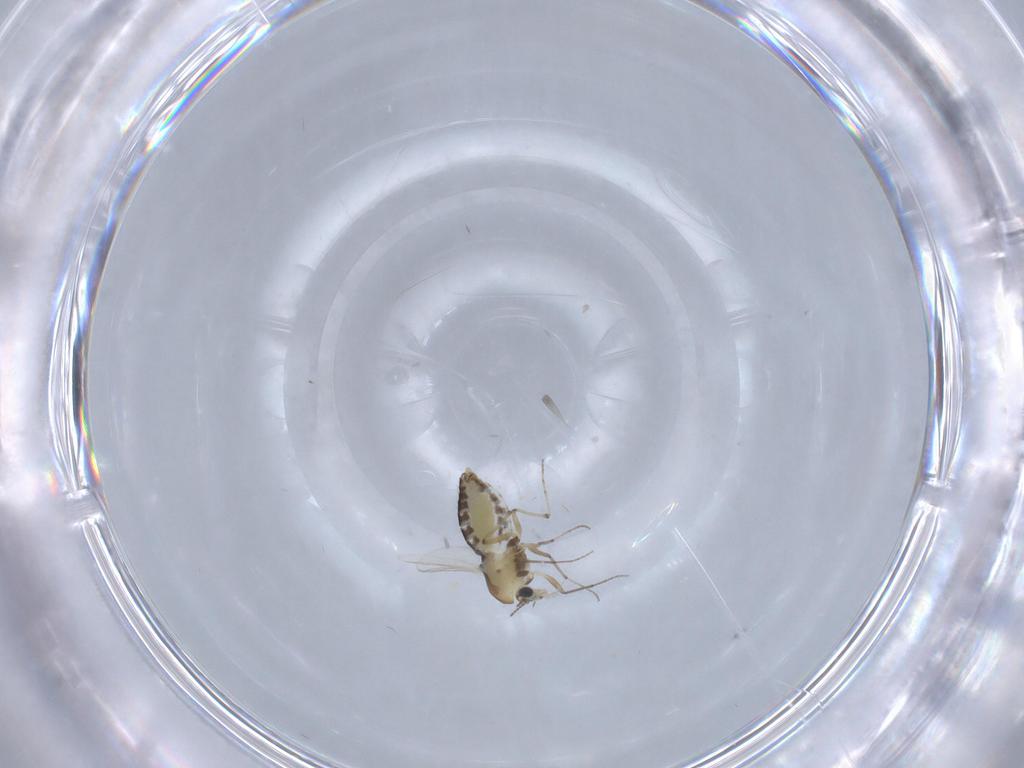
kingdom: Animalia
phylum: Arthropoda
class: Insecta
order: Diptera
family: Chironomidae
